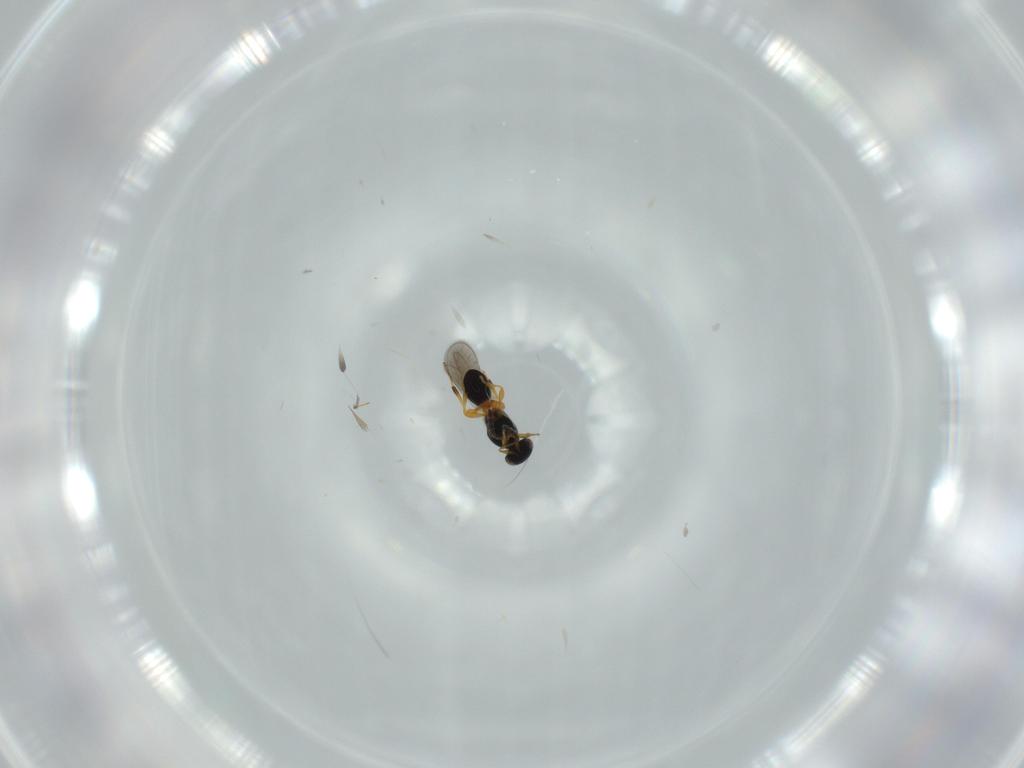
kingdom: Animalia
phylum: Arthropoda
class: Insecta
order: Hymenoptera
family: Platygastridae
